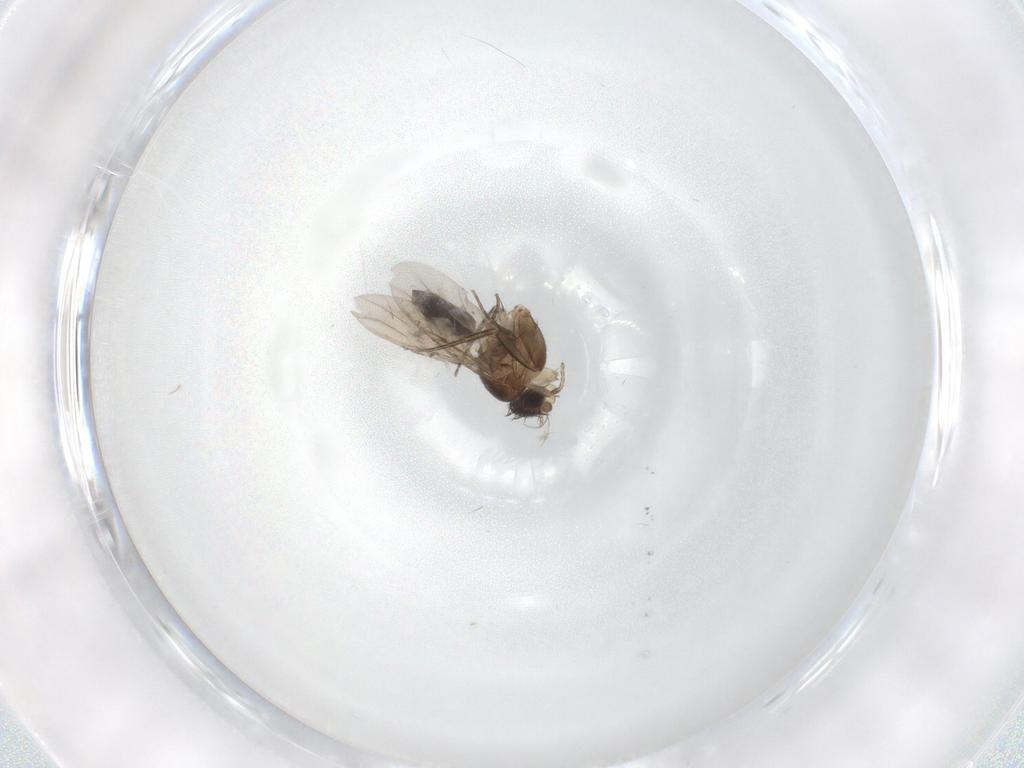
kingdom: Animalia
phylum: Arthropoda
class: Insecta
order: Diptera
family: Phoridae
